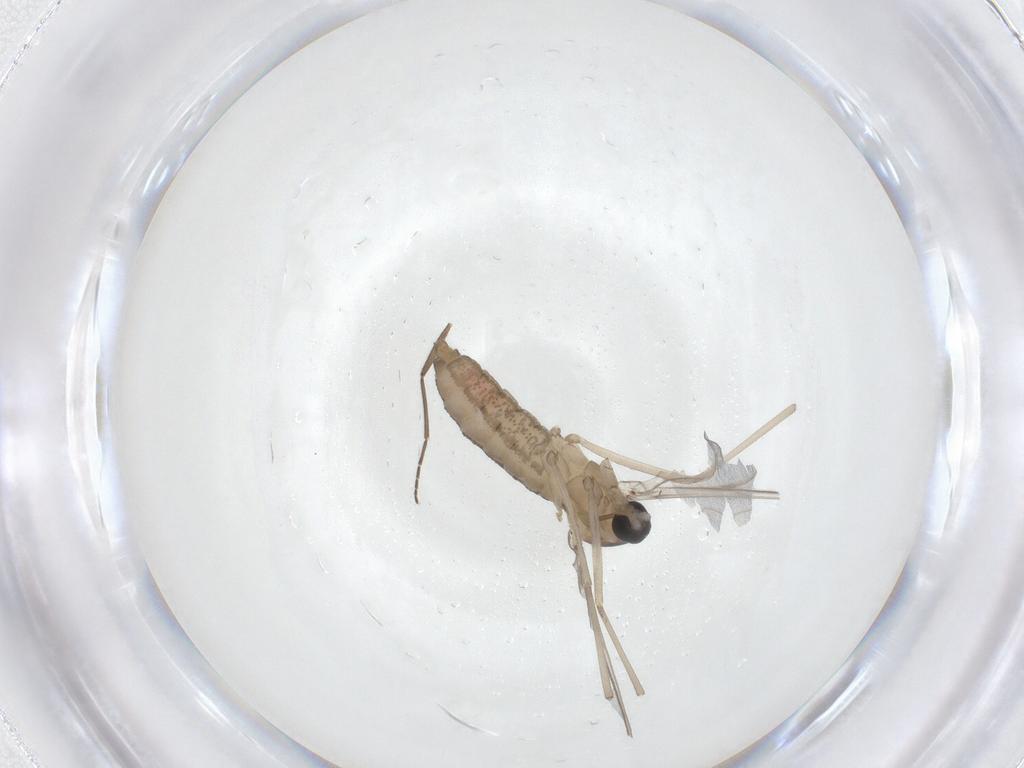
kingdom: Animalia
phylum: Arthropoda
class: Insecta
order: Diptera
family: Cecidomyiidae
